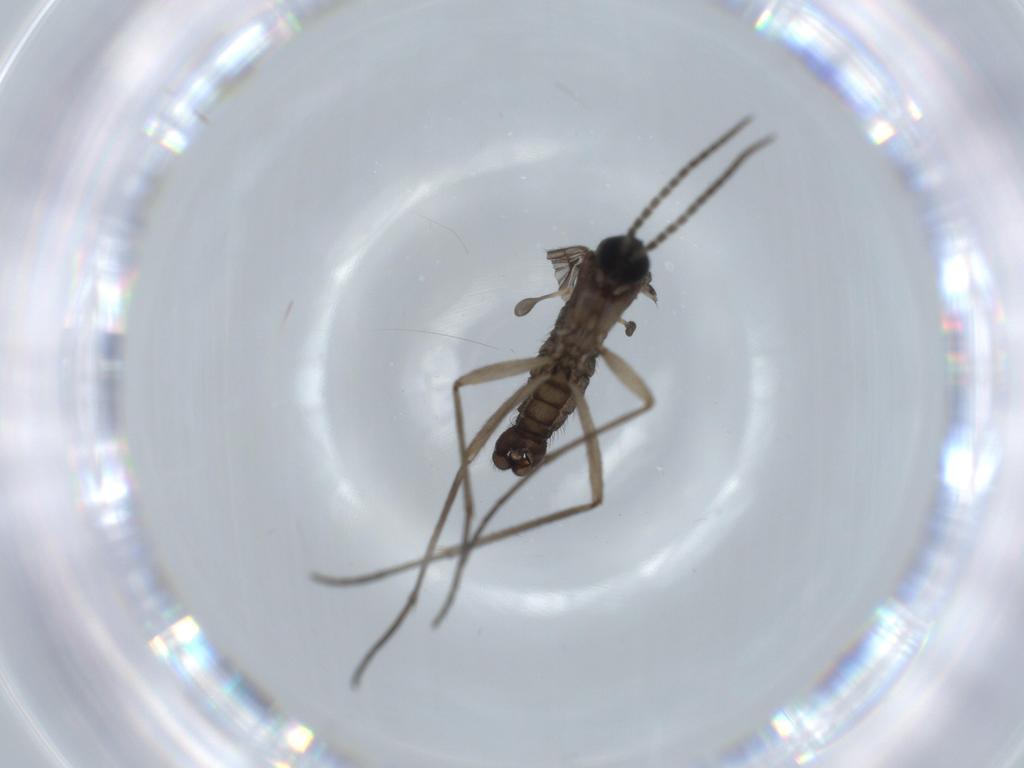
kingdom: Animalia
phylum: Arthropoda
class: Insecta
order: Diptera
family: Sciaridae
